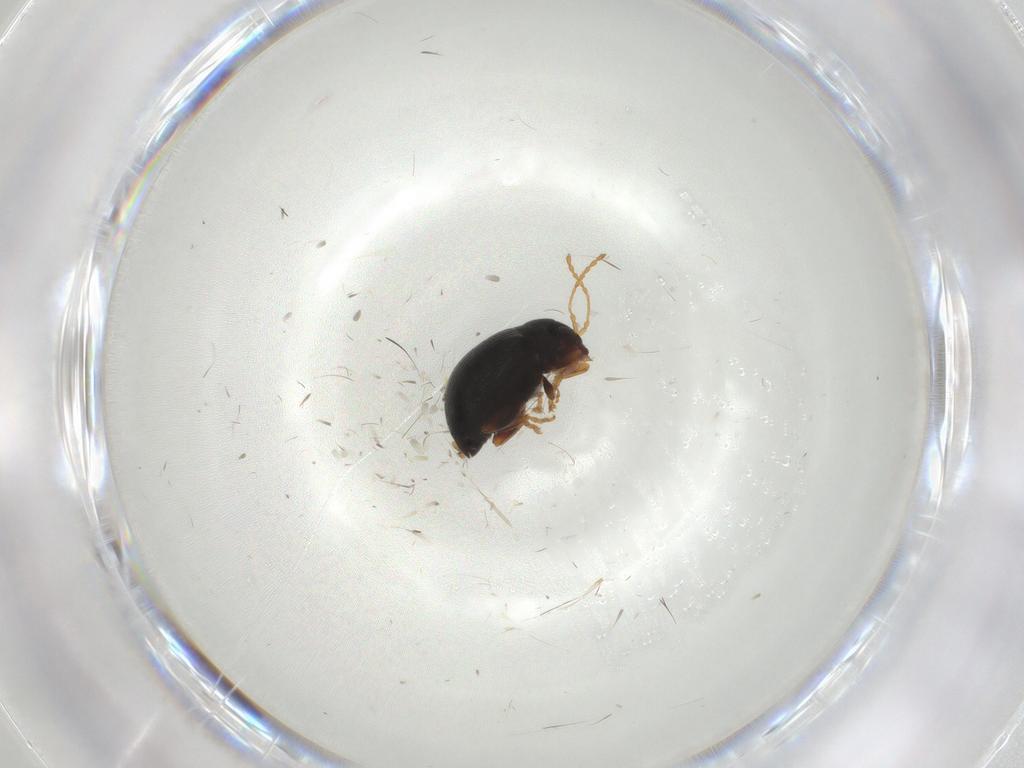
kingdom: Animalia
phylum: Arthropoda
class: Insecta
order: Coleoptera
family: Chrysomelidae
